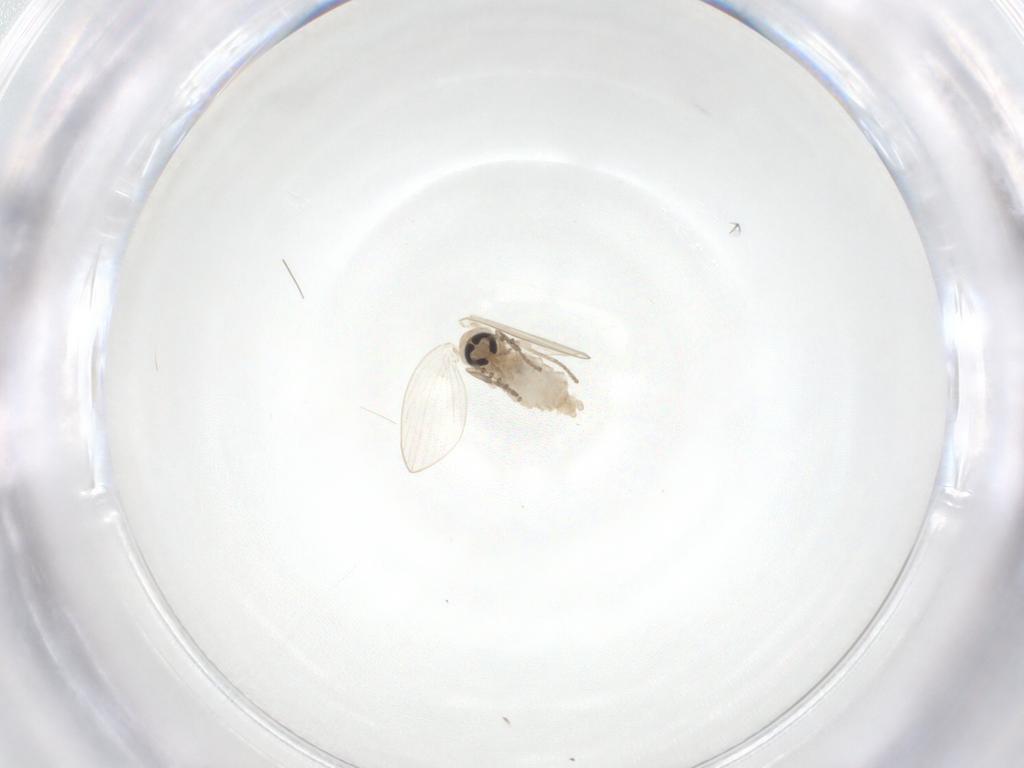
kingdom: Animalia
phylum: Arthropoda
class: Insecta
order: Diptera
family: Psychodidae
